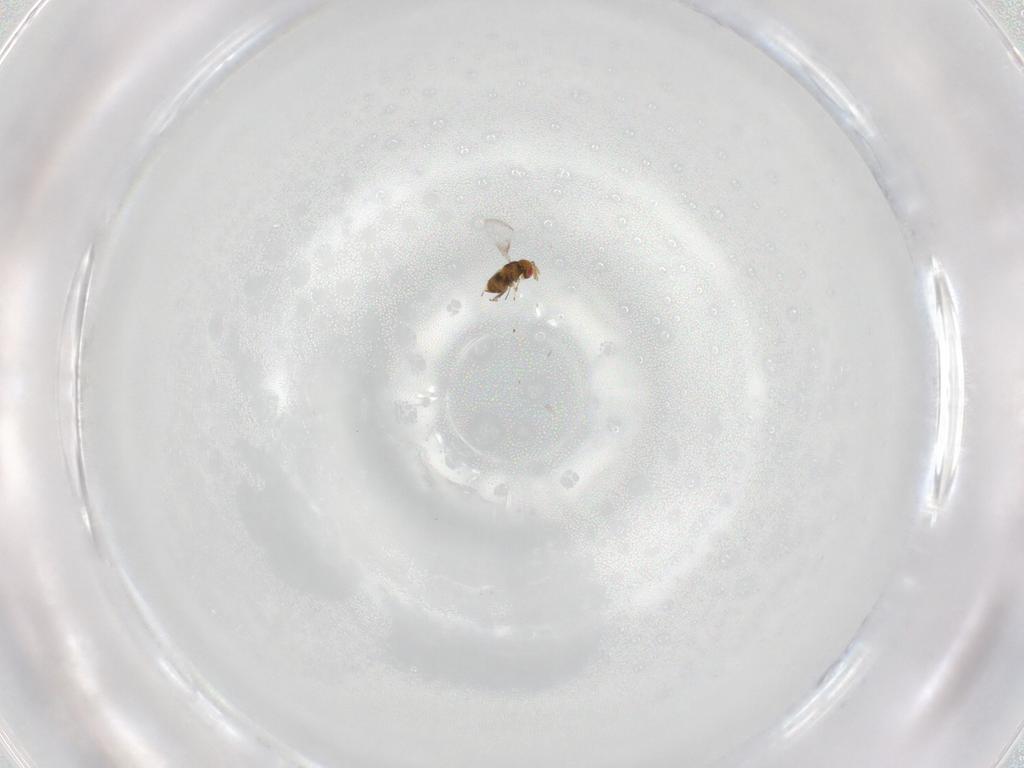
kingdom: Animalia
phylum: Arthropoda
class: Insecta
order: Hymenoptera
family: Trichogrammatidae
